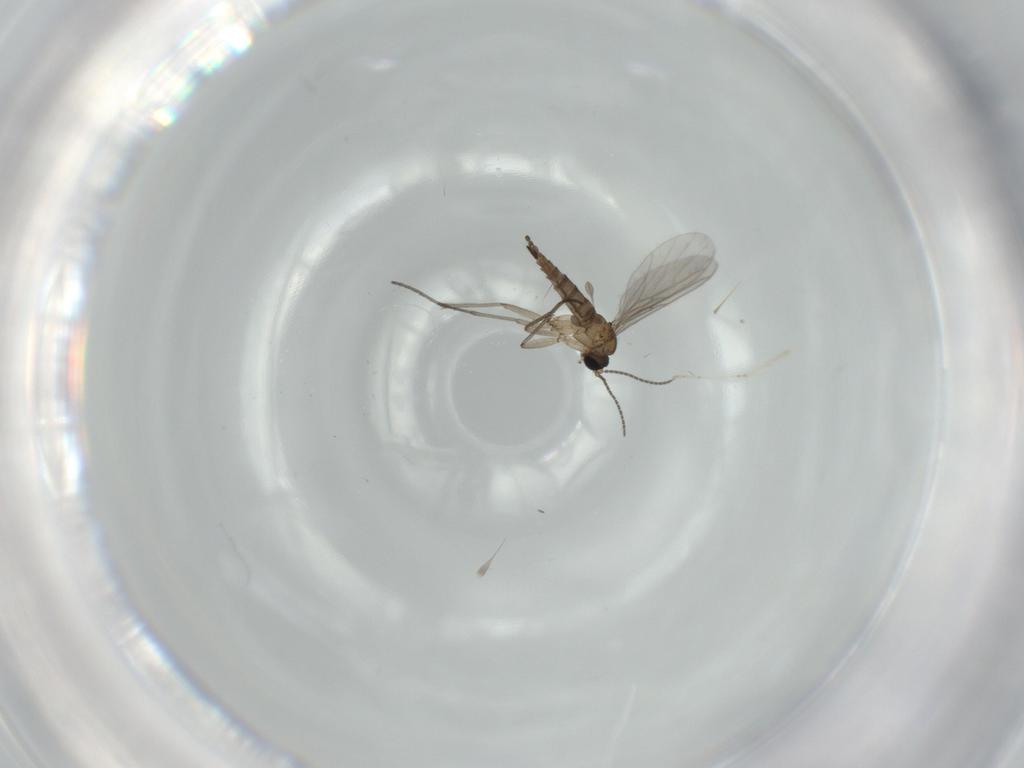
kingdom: Animalia
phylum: Arthropoda
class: Insecta
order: Diptera
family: Sciaridae
